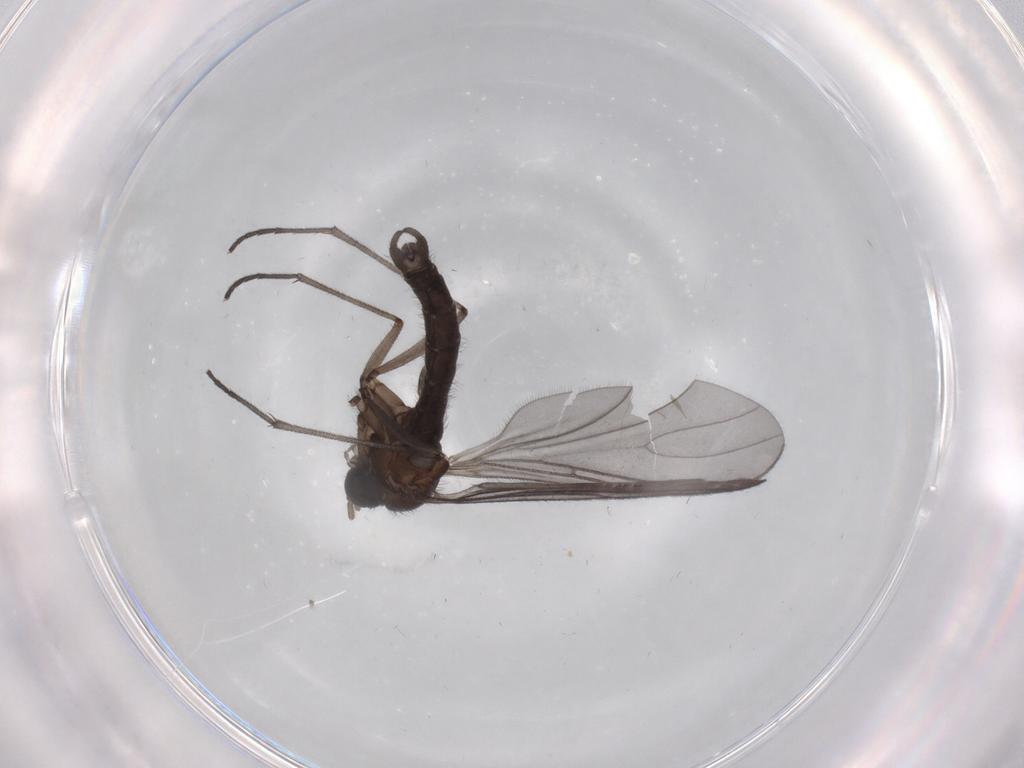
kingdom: Animalia
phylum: Arthropoda
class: Insecta
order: Diptera
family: Sciaridae
